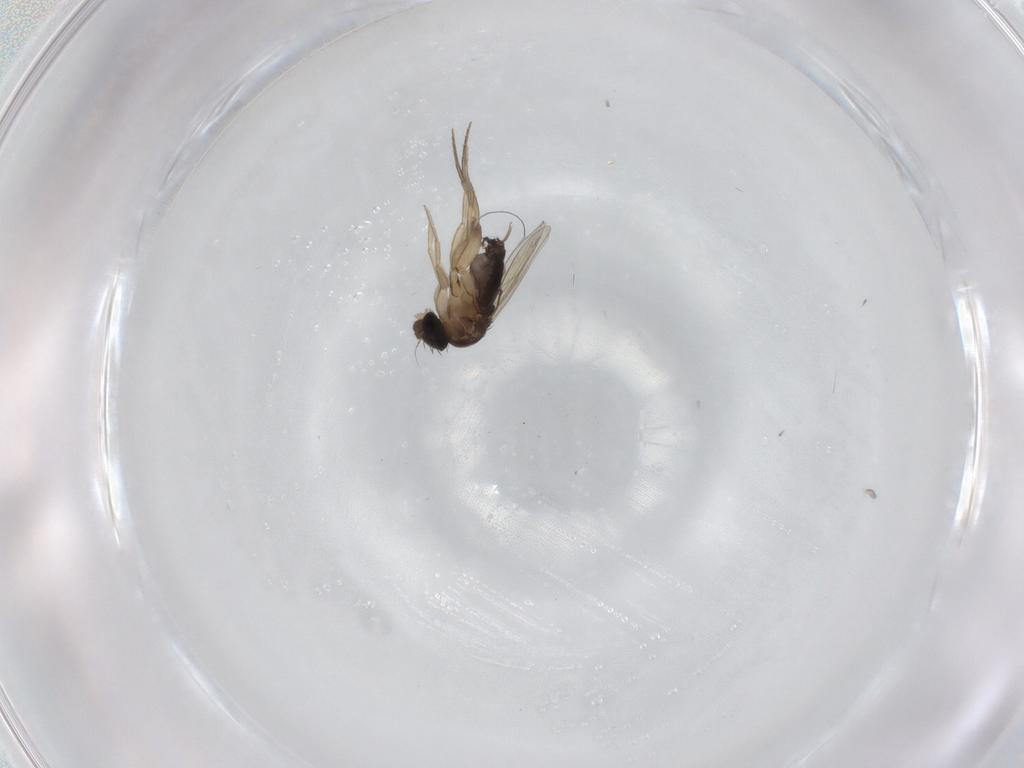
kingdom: Animalia
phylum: Arthropoda
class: Insecta
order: Diptera
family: Phoridae
